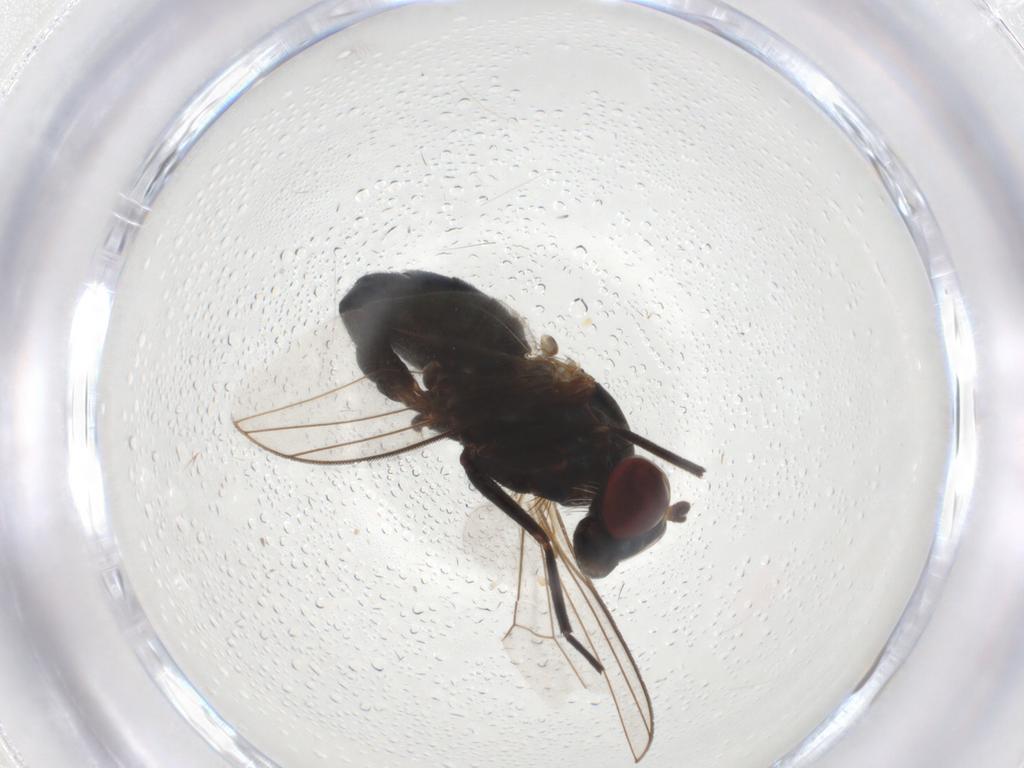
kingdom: Animalia
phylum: Arthropoda
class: Insecta
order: Diptera
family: Dolichopodidae
